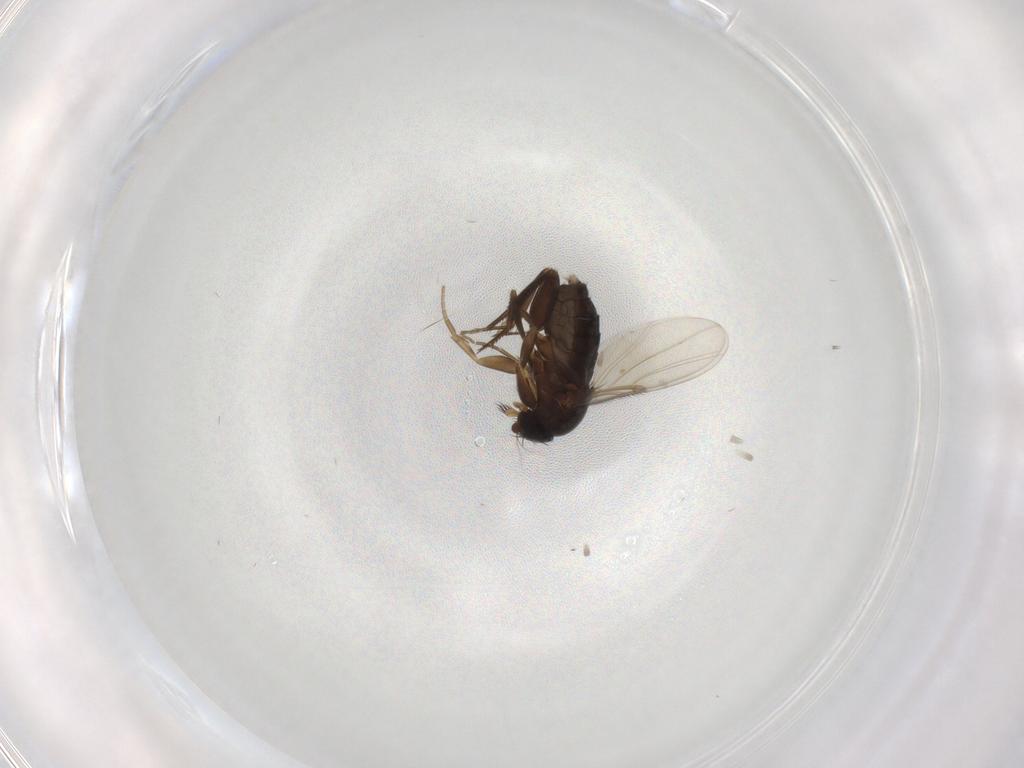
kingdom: Animalia
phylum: Arthropoda
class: Insecta
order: Diptera
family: Phoridae
